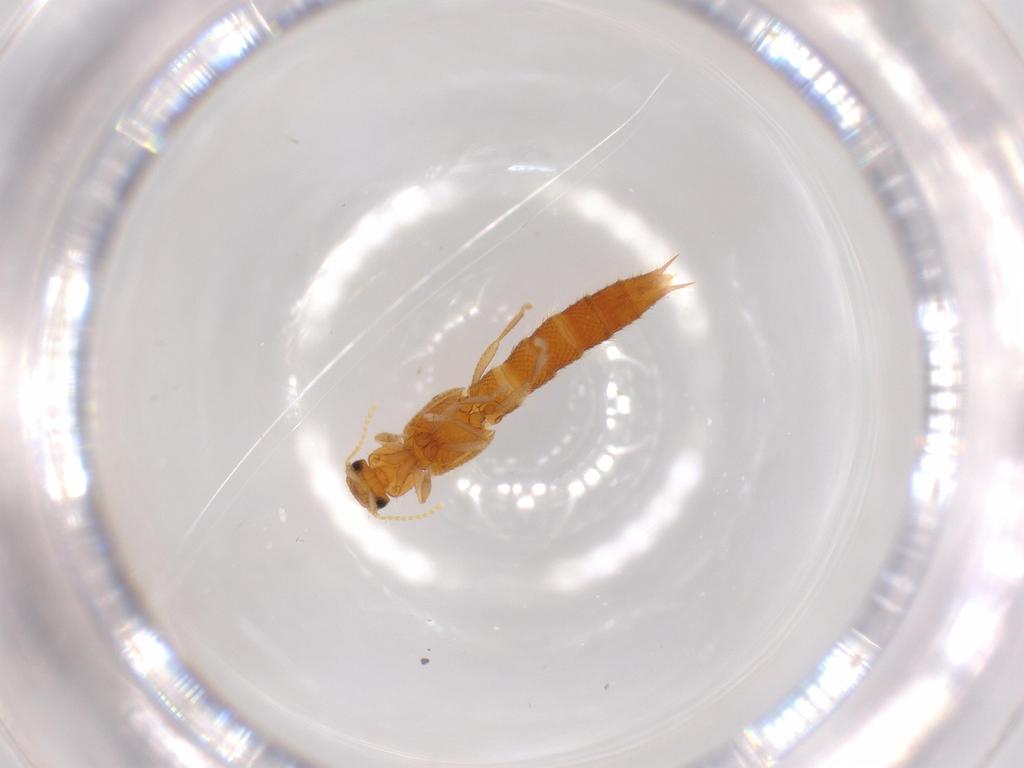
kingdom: Animalia
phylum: Arthropoda
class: Insecta
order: Coleoptera
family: Staphylinidae
